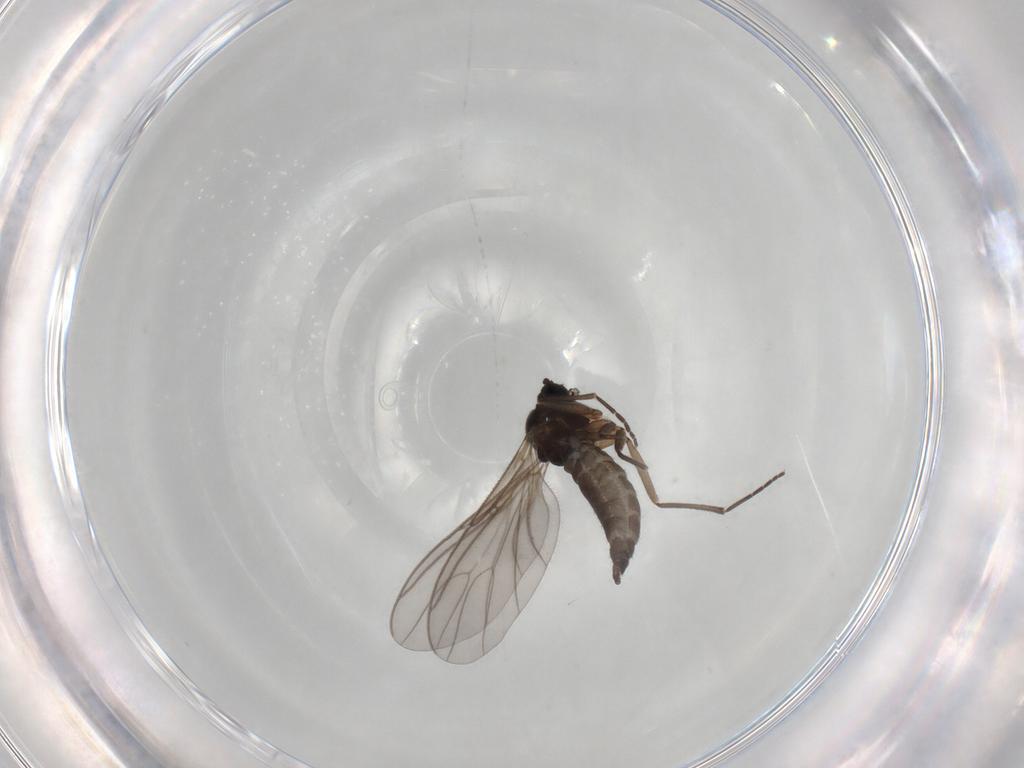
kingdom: Animalia
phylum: Arthropoda
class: Insecta
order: Diptera
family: Sciaridae
